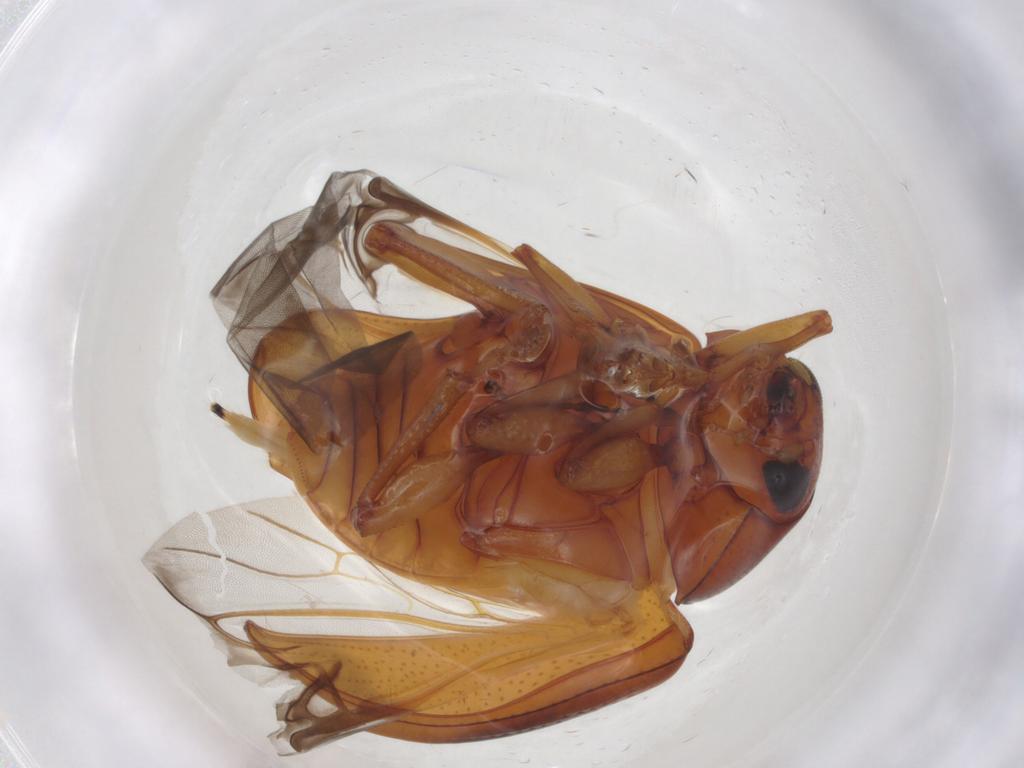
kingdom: Animalia
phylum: Arthropoda
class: Insecta
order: Coleoptera
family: Chrysomelidae
